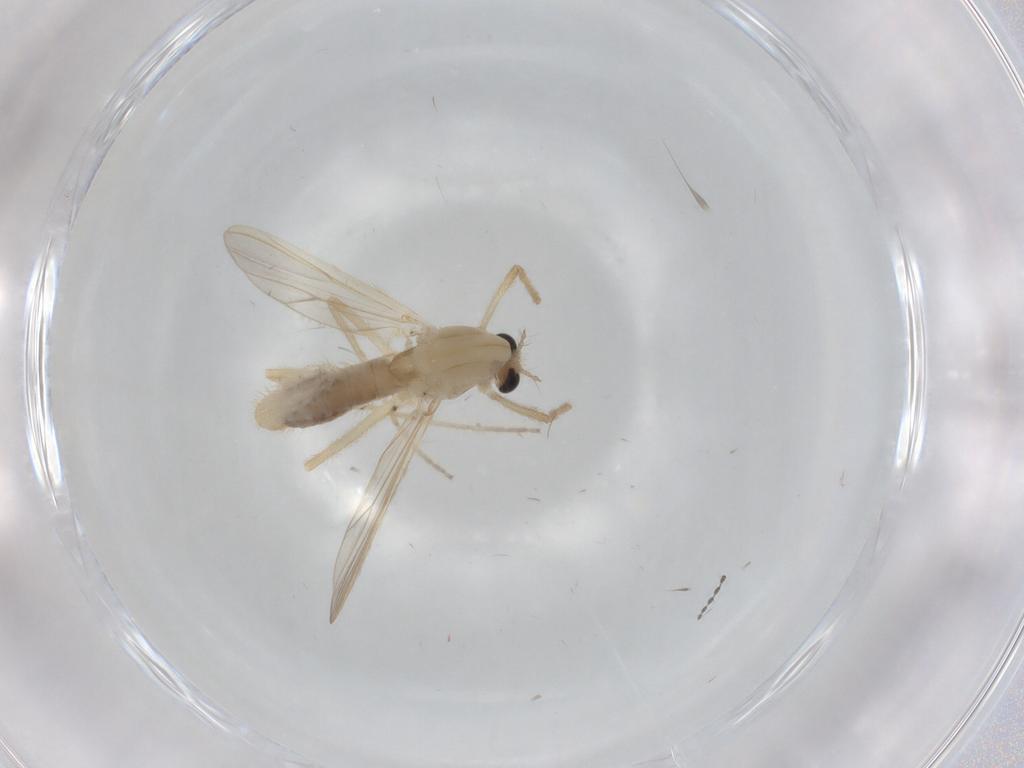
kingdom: Animalia
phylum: Arthropoda
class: Insecta
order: Diptera
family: Chironomidae
